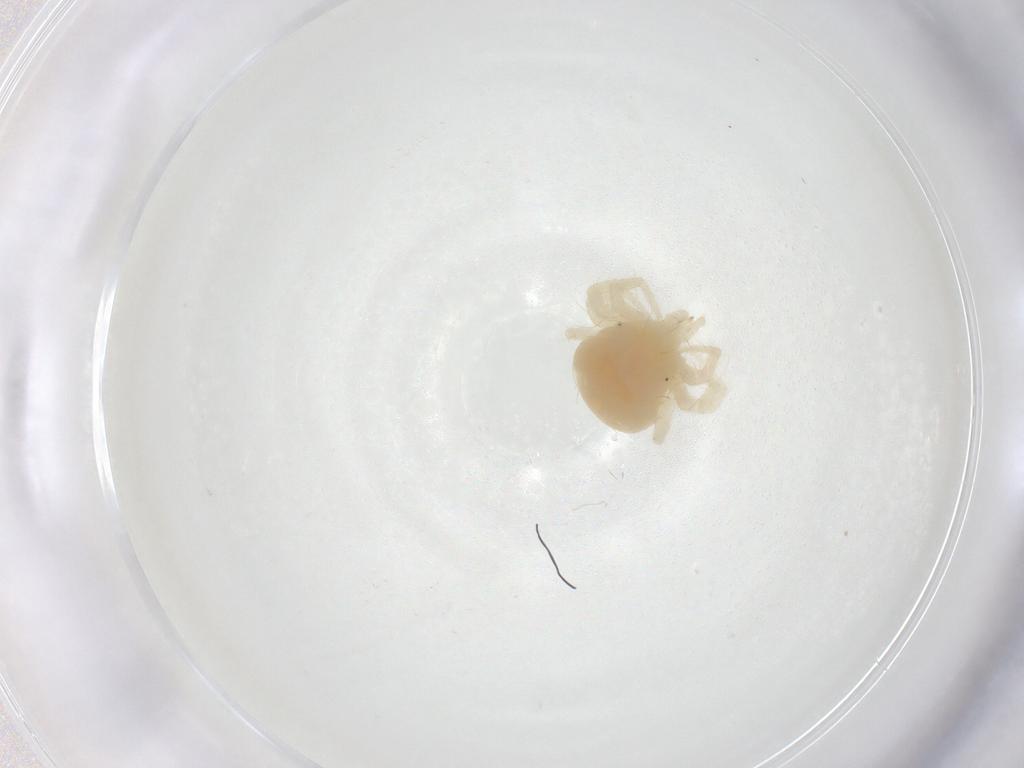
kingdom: Animalia
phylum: Arthropoda
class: Arachnida
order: Trombidiformes
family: Anystidae
